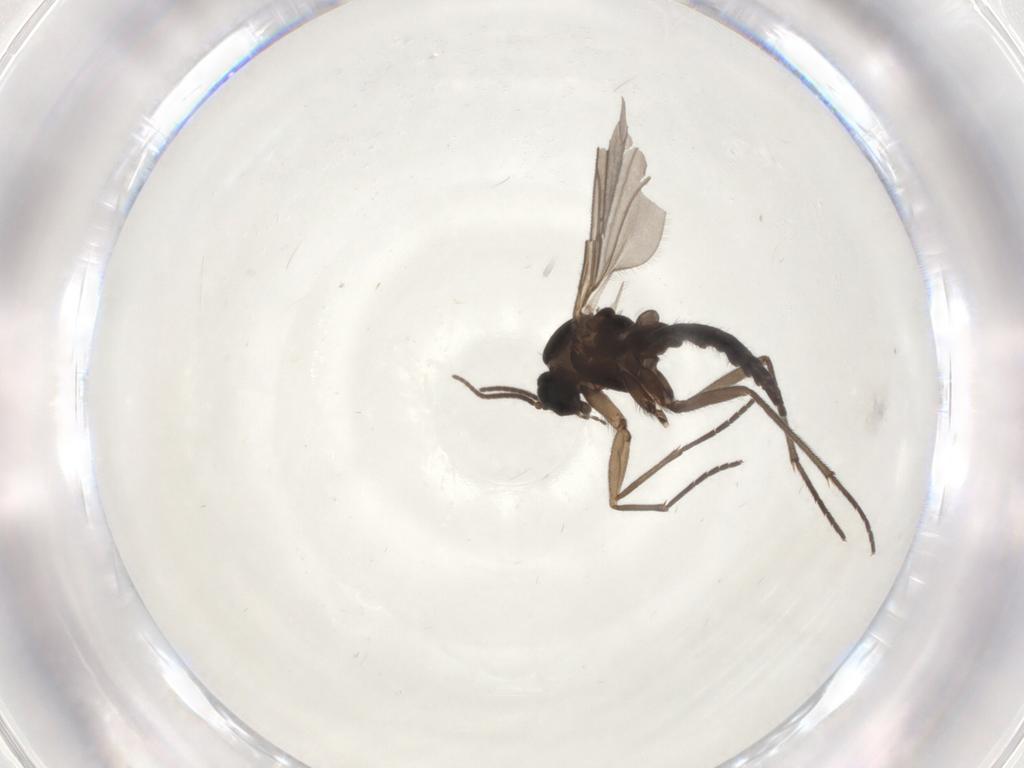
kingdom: Animalia
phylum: Arthropoda
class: Insecta
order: Diptera
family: Sciaridae
